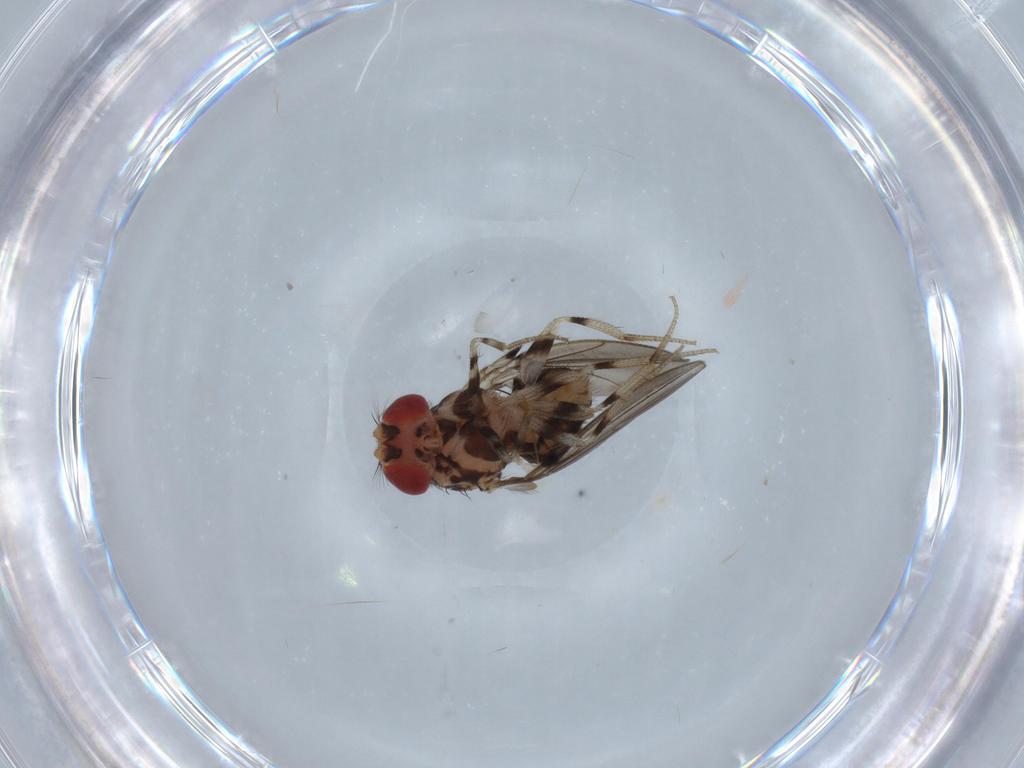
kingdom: Animalia
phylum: Arthropoda
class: Insecta
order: Diptera
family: Drosophilidae
